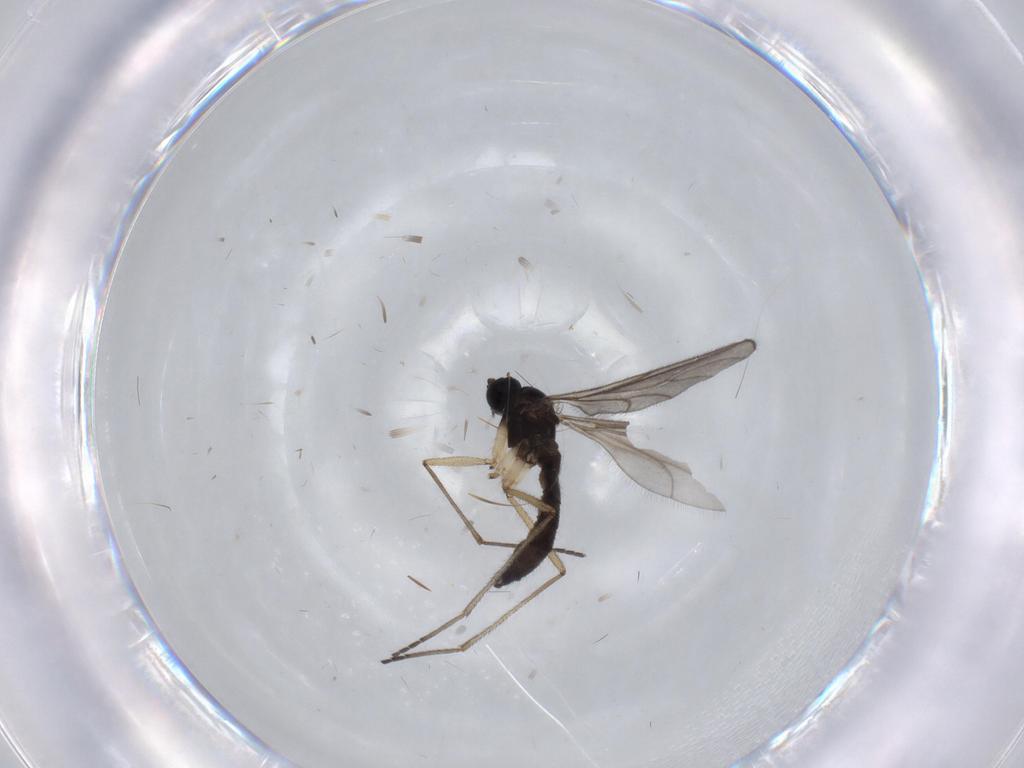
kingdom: Animalia
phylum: Arthropoda
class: Insecta
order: Diptera
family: Sciaridae
